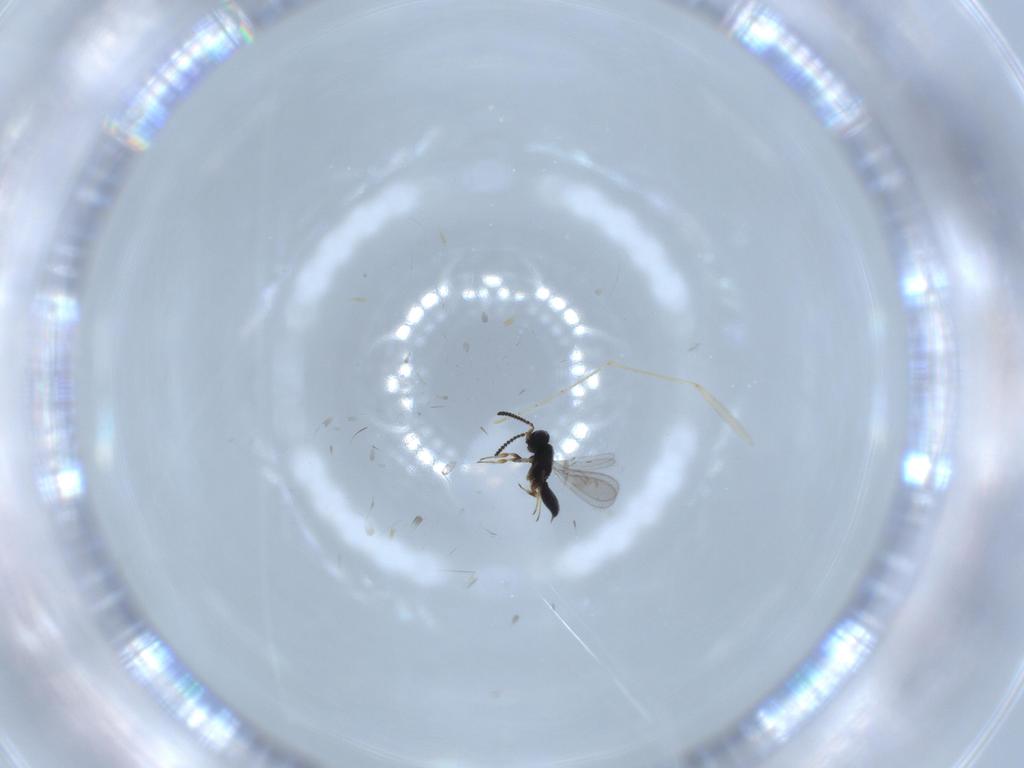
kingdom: Animalia
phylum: Arthropoda
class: Insecta
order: Hymenoptera
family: Scelionidae
